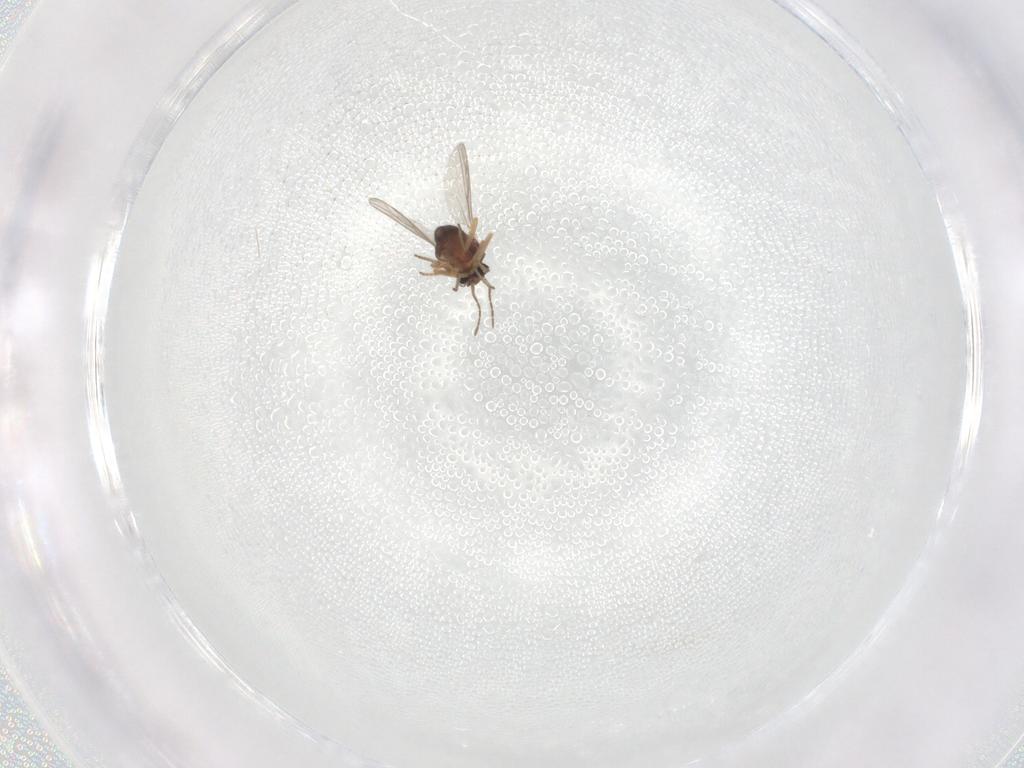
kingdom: Animalia
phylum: Arthropoda
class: Insecta
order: Diptera
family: Ceratopogonidae
